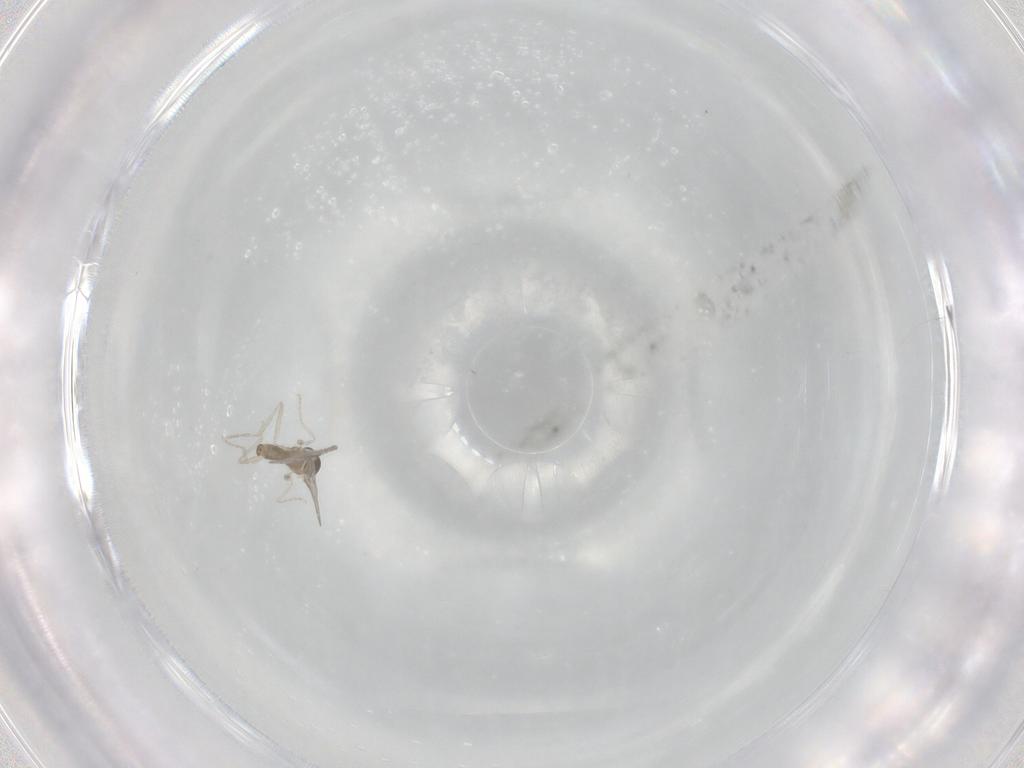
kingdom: Animalia
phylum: Arthropoda
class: Insecta
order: Diptera
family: Cecidomyiidae
